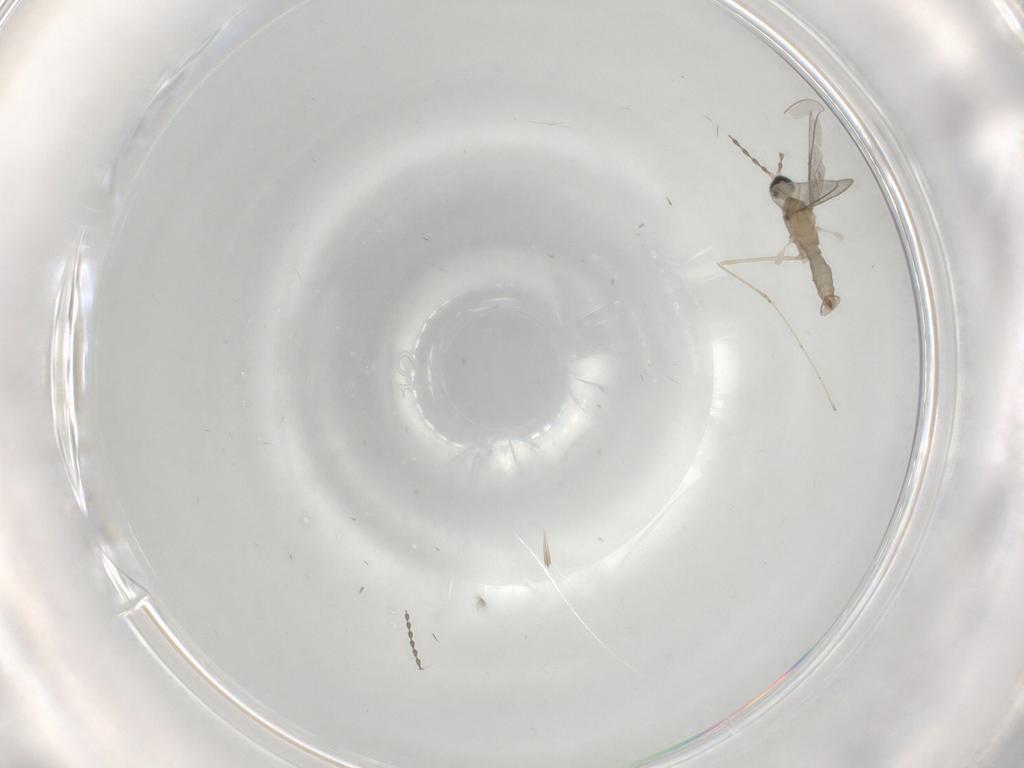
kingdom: Animalia
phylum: Arthropoda
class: Insecta
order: Diptera
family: Cecidomyiidae
